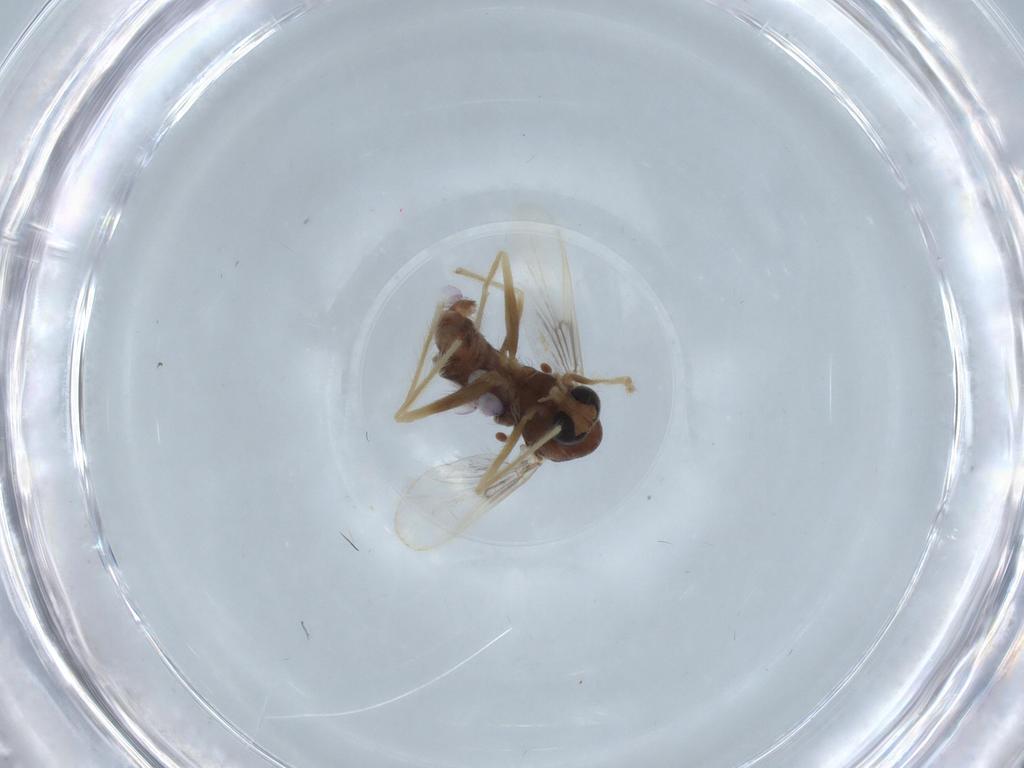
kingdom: Animalia
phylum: Arthropoda
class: Insecta
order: Diptera
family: Chironomidae
